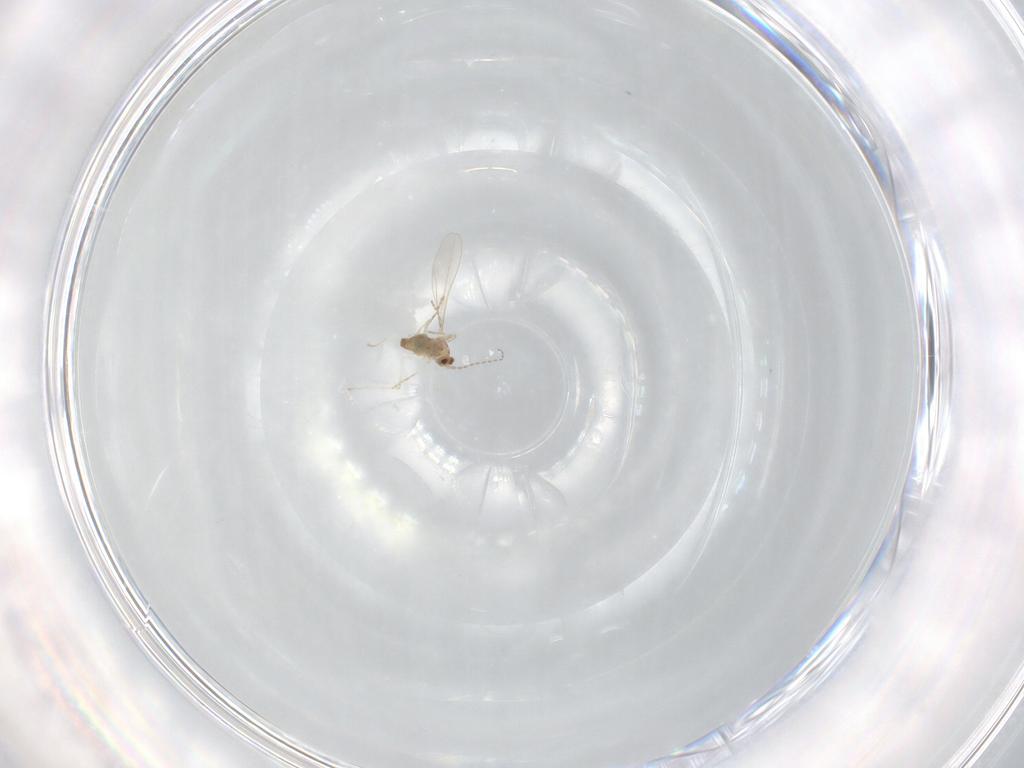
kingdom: Animalia
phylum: Arthropoda
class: Insecta
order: Diptera
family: Cecidomyiidae
